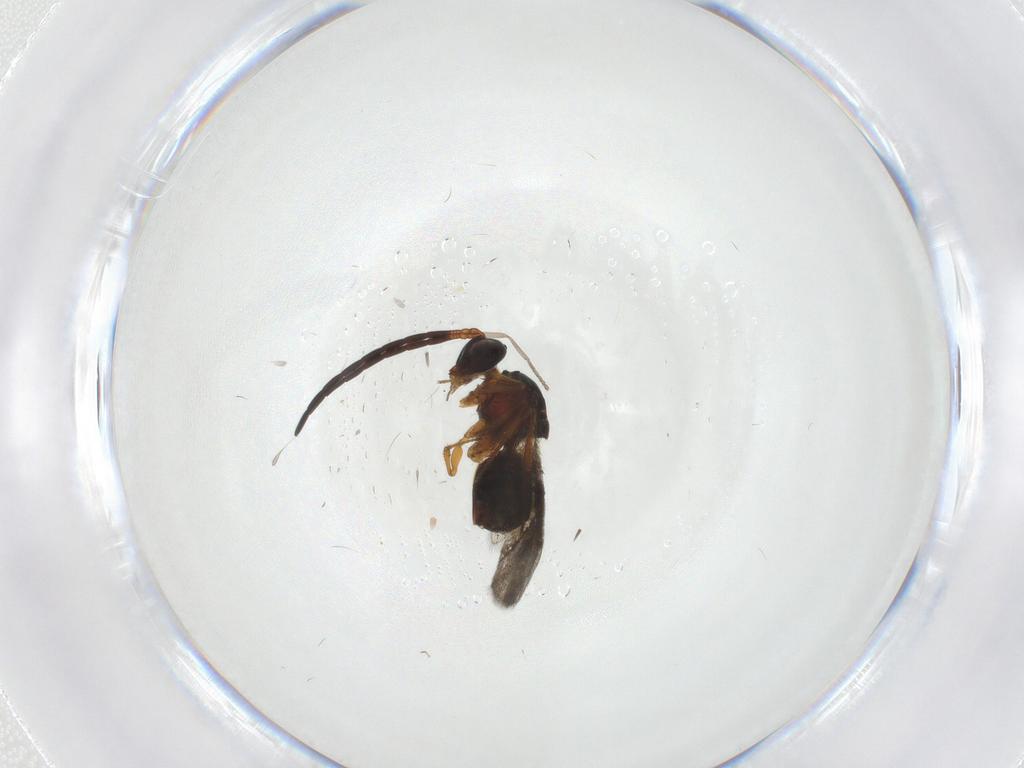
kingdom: Animalia
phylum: Arthropoda
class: Insecta
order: Hymenoptera
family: Figitidae
